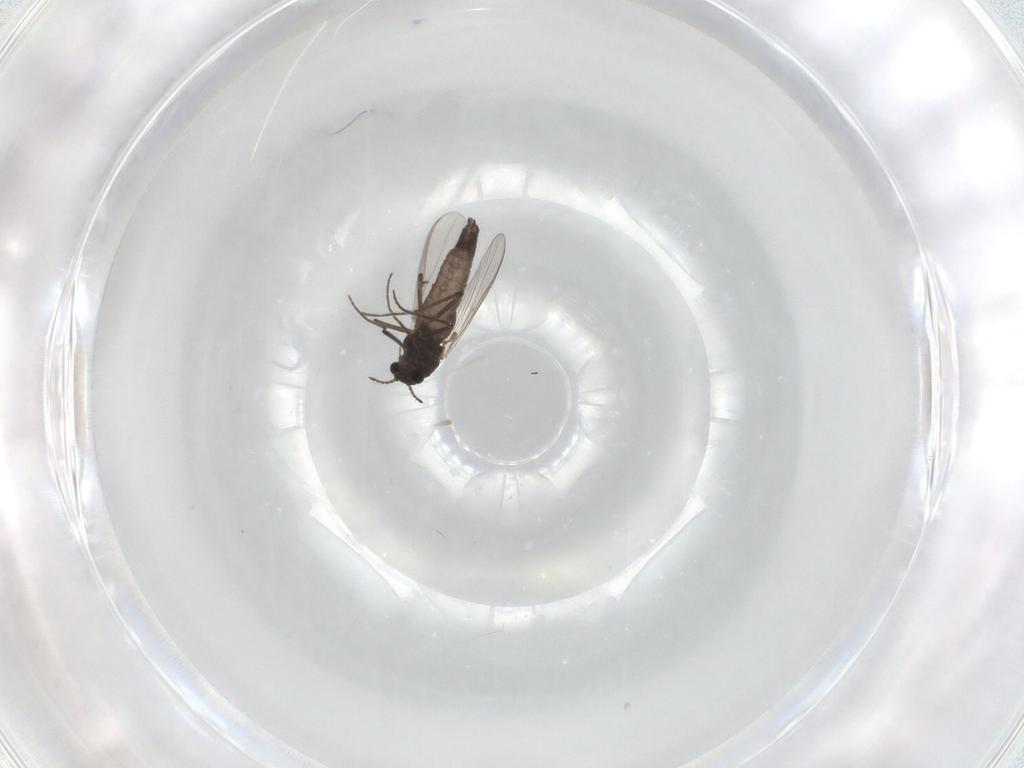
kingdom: Animalia
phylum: Arthropoda
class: Insecta
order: Diptera
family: Chironomidae
